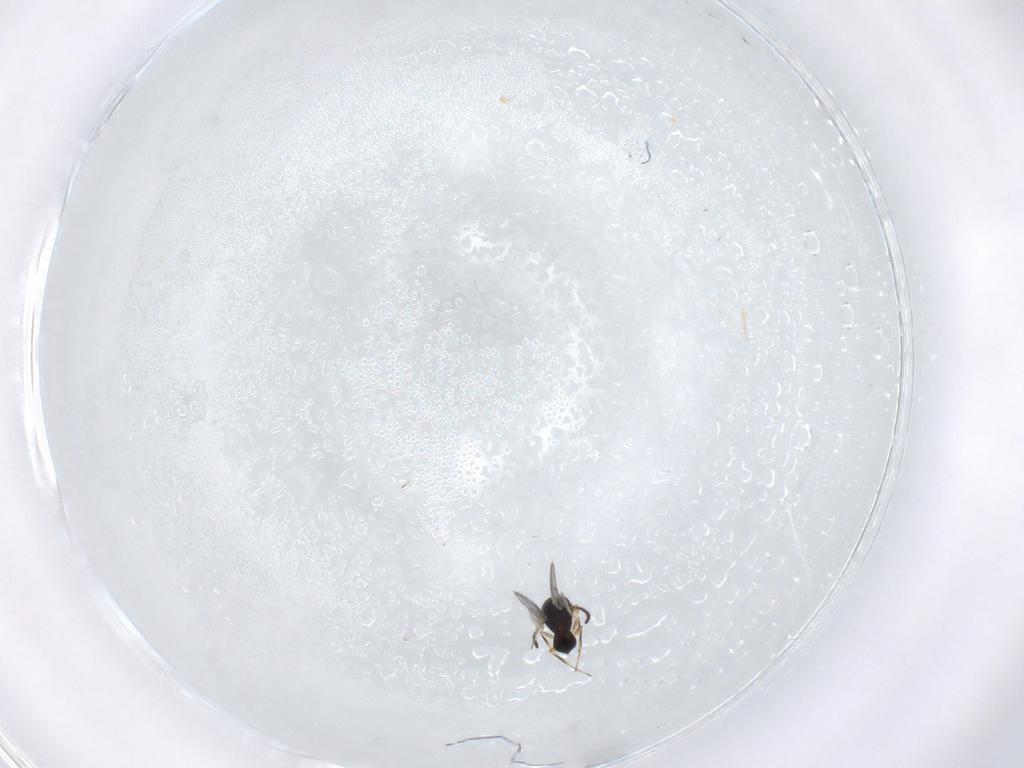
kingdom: Animalia
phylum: Arthropoda
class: Insecta
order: Hymenoptera
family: Scelionidae
